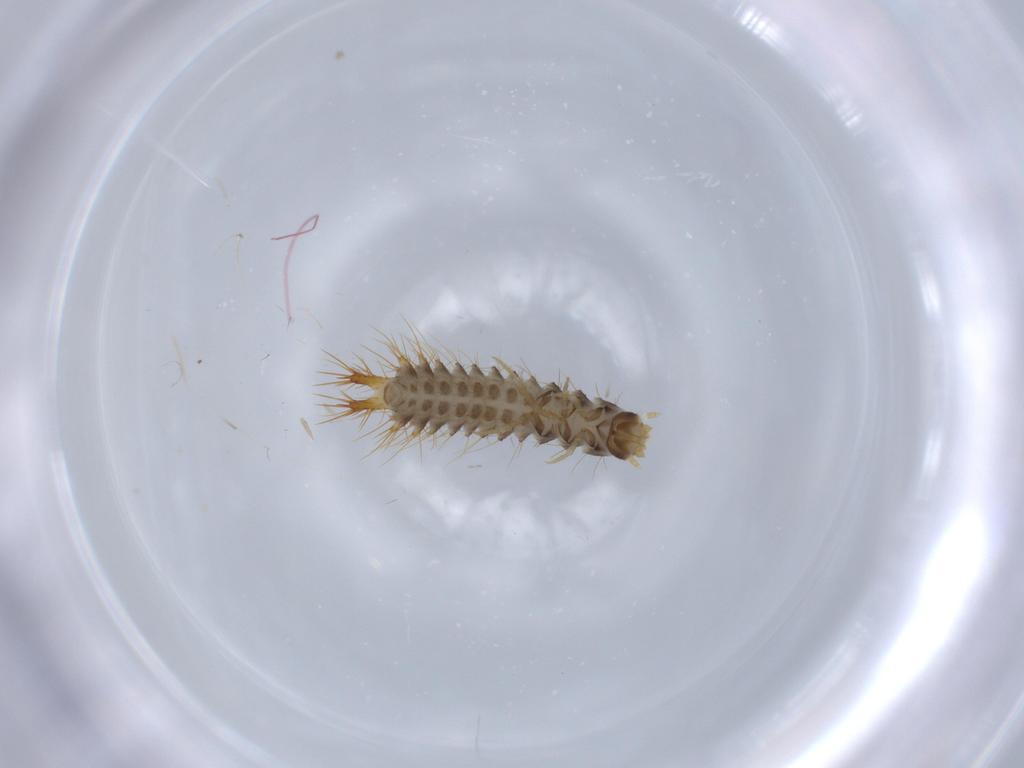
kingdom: Animalia
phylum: Arthropoda
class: Insecta
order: Coleoptera
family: Drilidae
